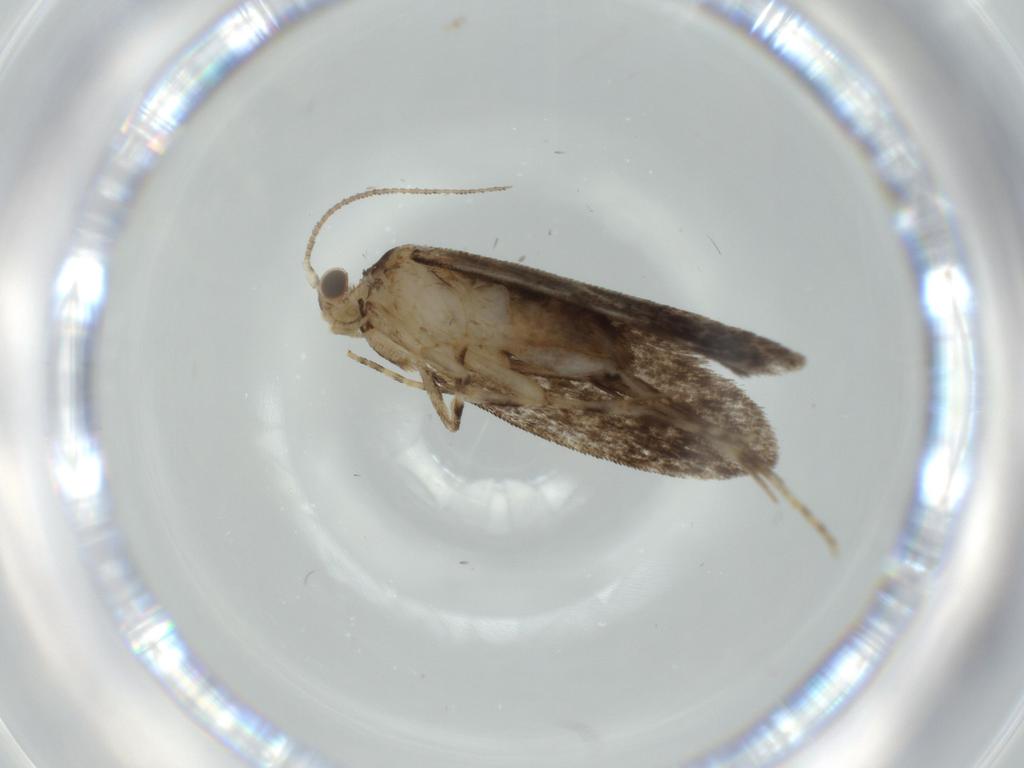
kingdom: Animalia
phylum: Arthropoda
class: Insecta
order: Lepidoptera
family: Tineidae
